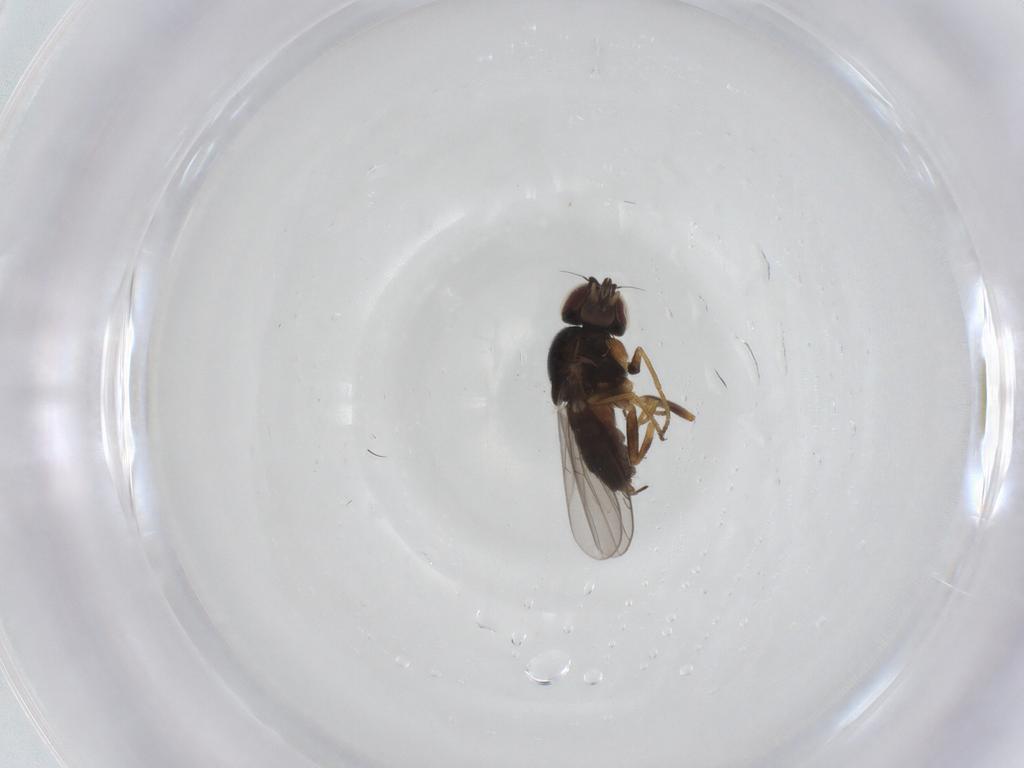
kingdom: Animalia
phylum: Arthropoda
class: Insecta
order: Diptera
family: Chloropidae
